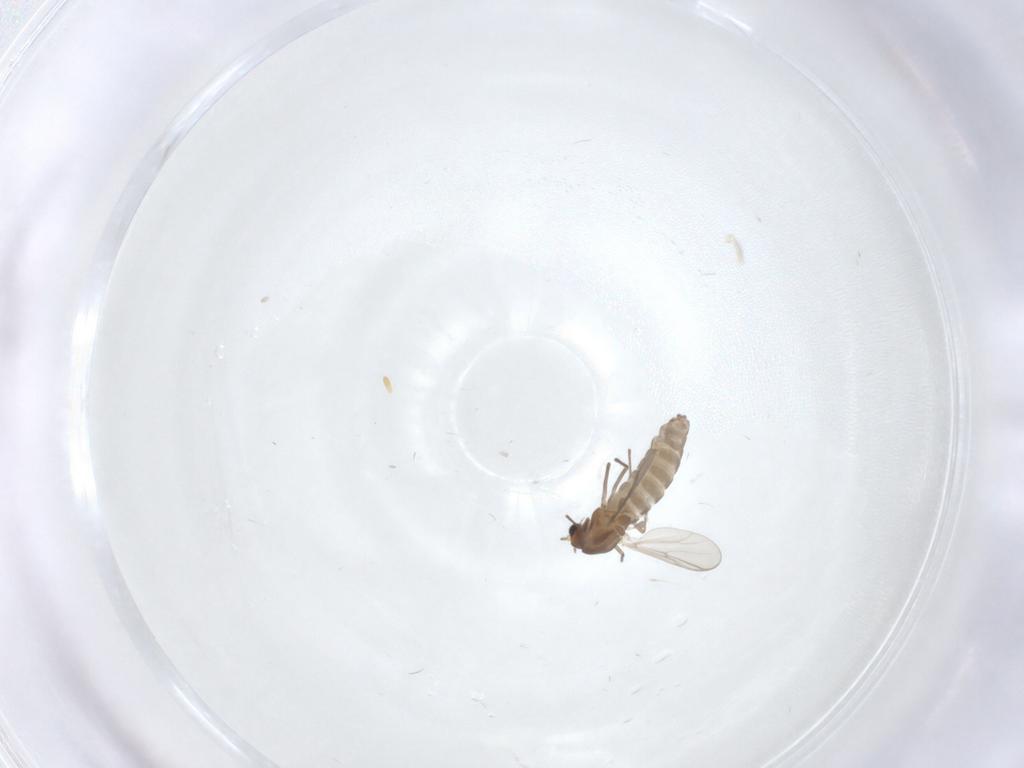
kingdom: Animalia
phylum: Arthropoda
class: Insecta
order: Diptera
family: Chironomidae
